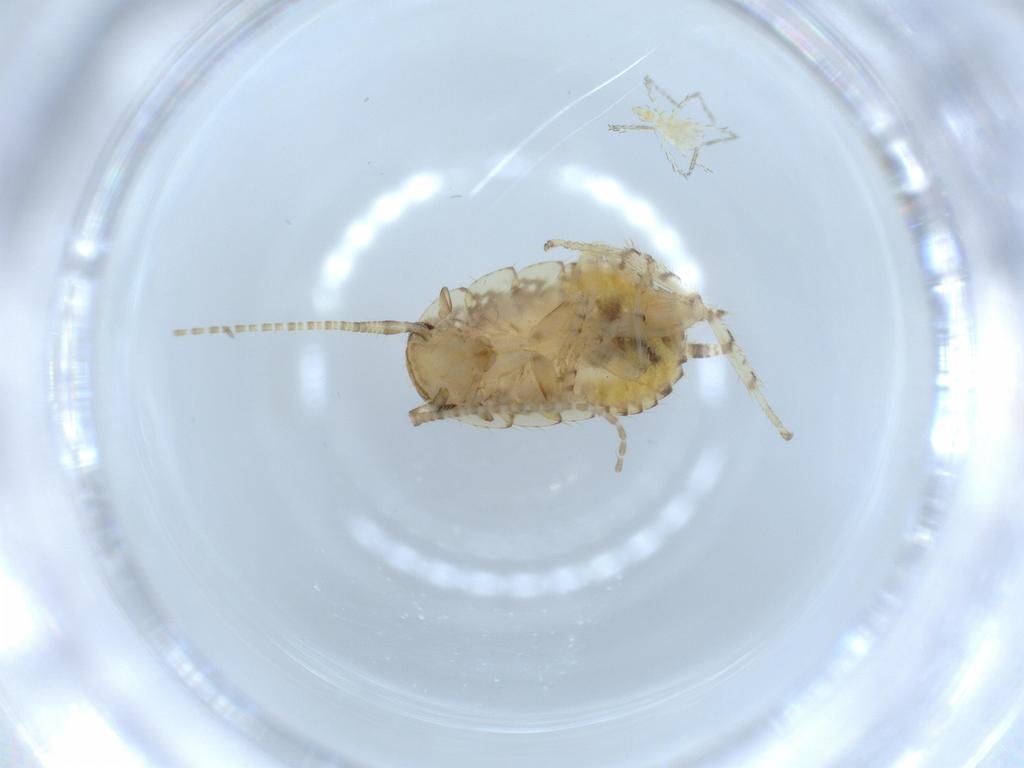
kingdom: Animalia
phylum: Arthropoda
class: Insecta
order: Blattodea
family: Ectobiidae
